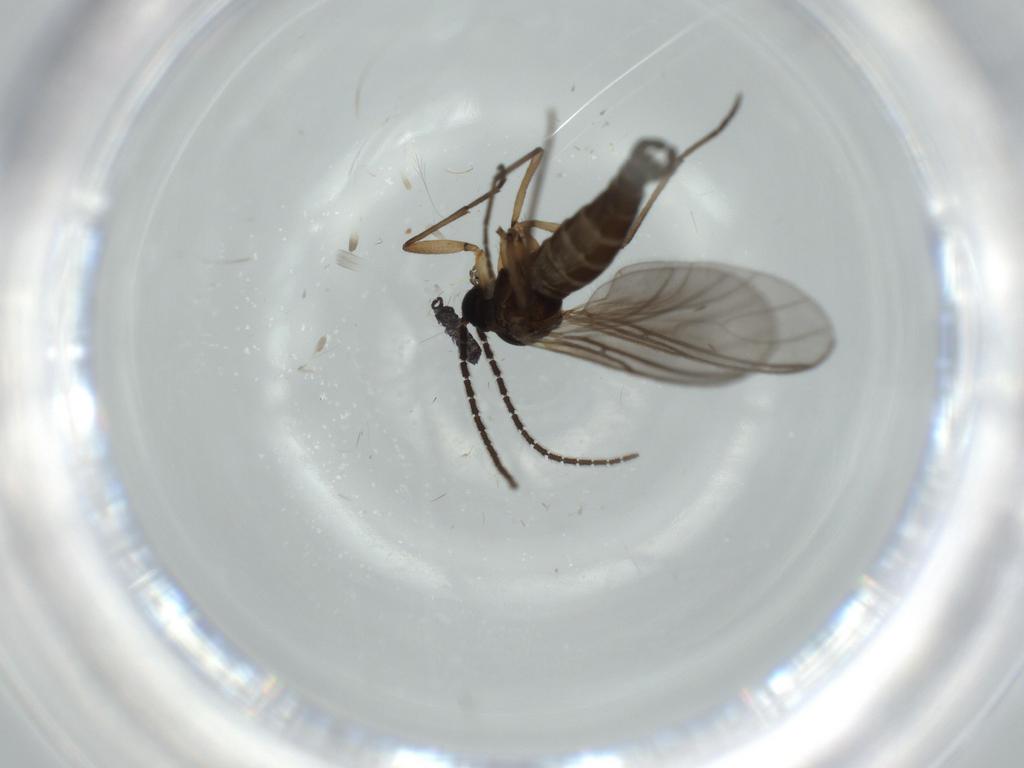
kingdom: Animalia
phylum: Arthropoda
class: Insecta
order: Diptera
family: Sciaridae
